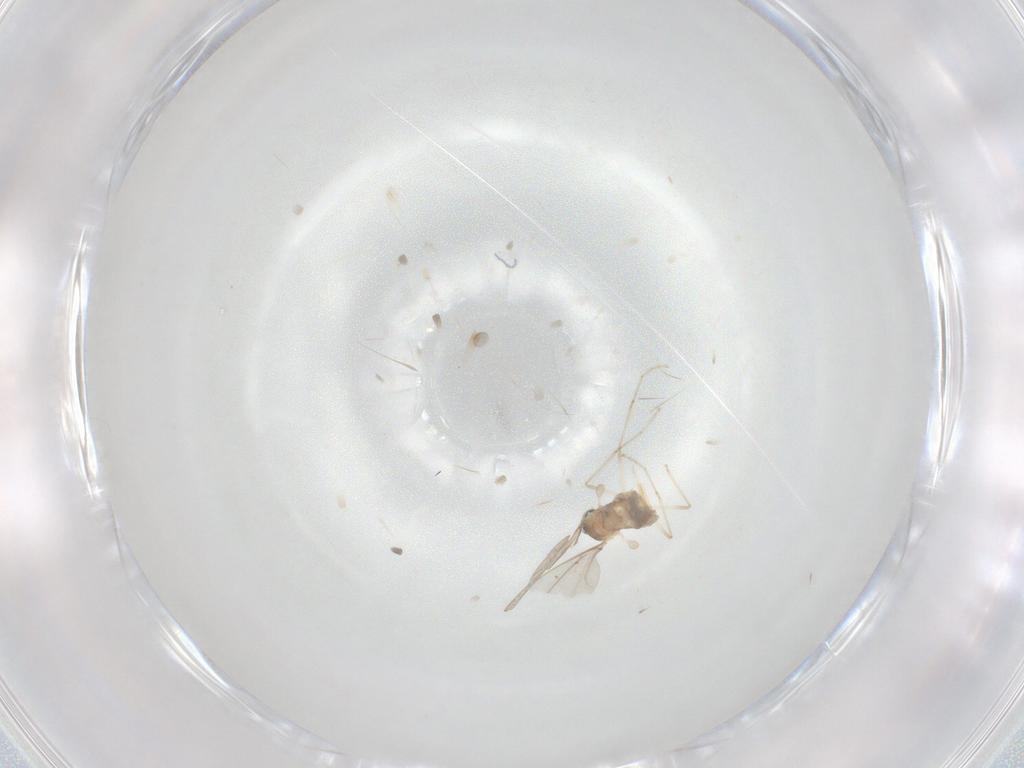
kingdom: Animalia
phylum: Arthropoda
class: Insecta
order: Diptera
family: Cecidomyiidae
